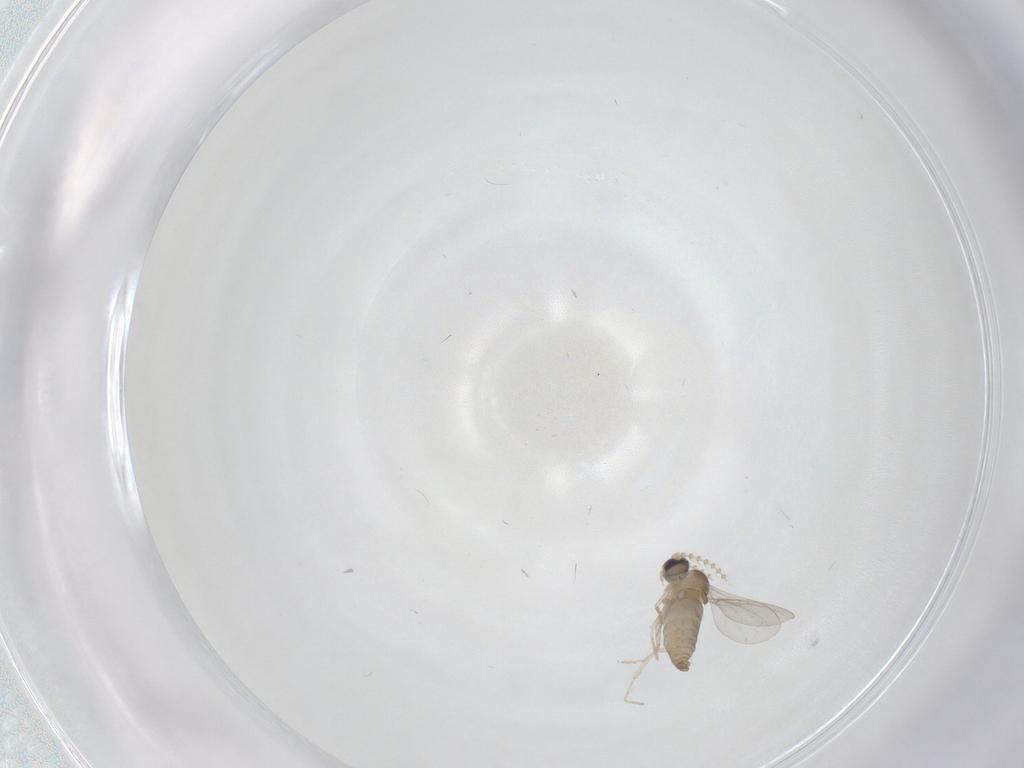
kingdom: Animalia
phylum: Arthropoda
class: Insecta
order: Diptera
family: Cecidomyiidae
